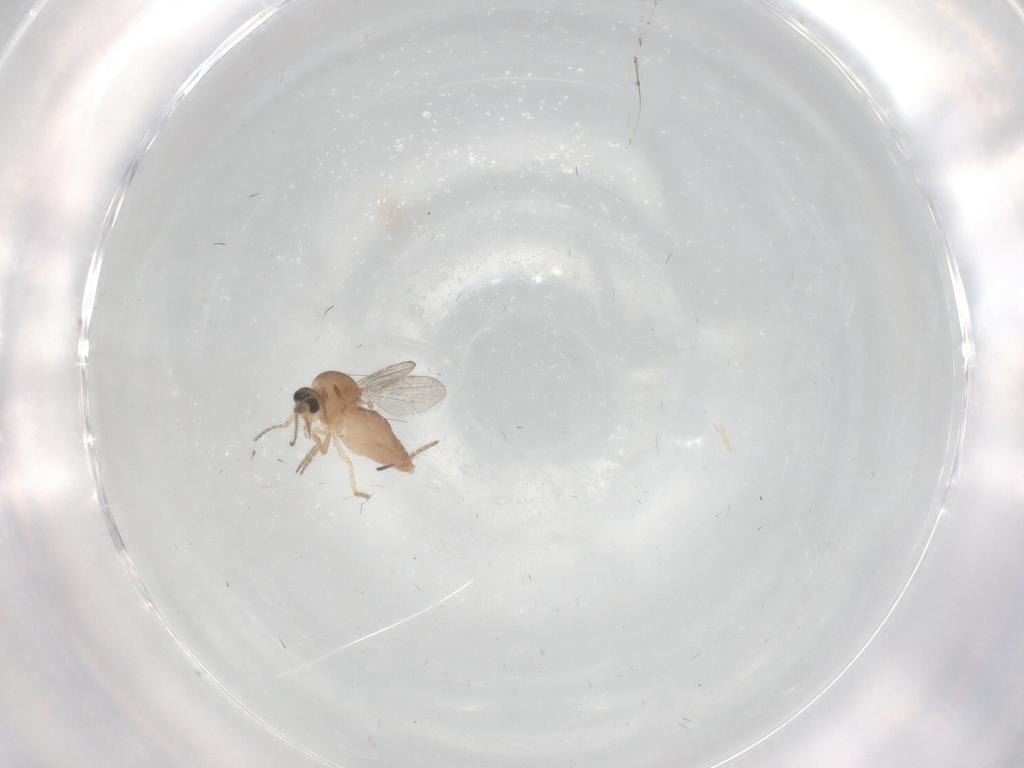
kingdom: Animalia
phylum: Arthropoda
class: Insecta
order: Diptera
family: Ceratopogonidae
